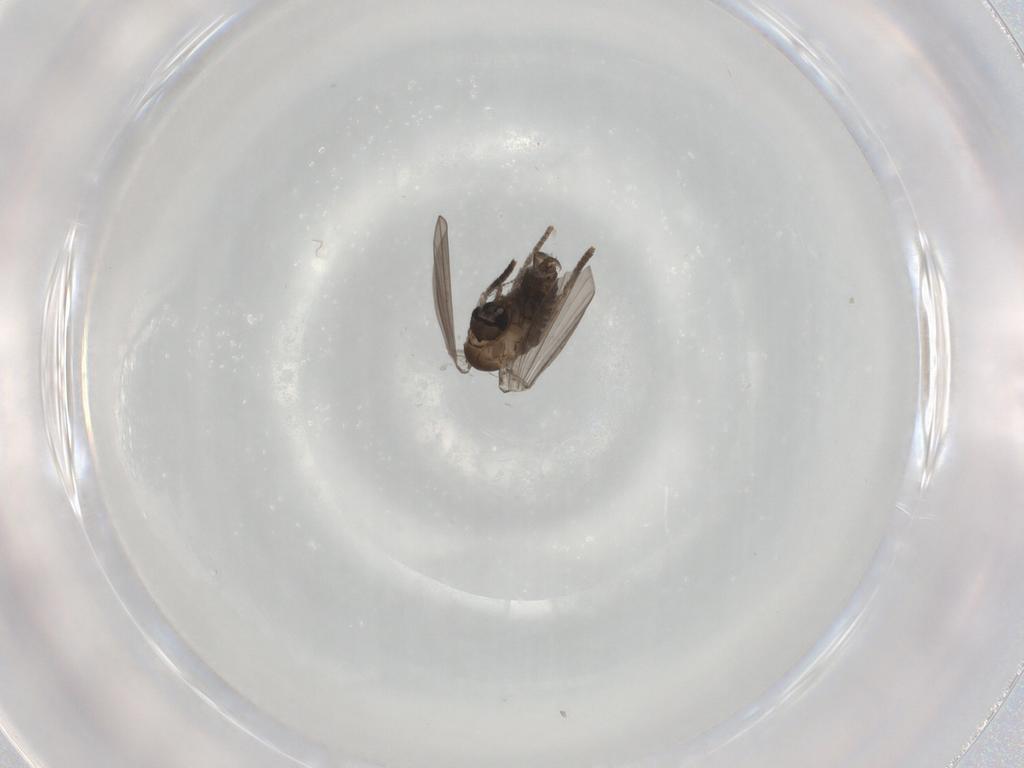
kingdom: Animalia
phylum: Arthropoda
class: Insecta
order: Diptera
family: Psychodidae
